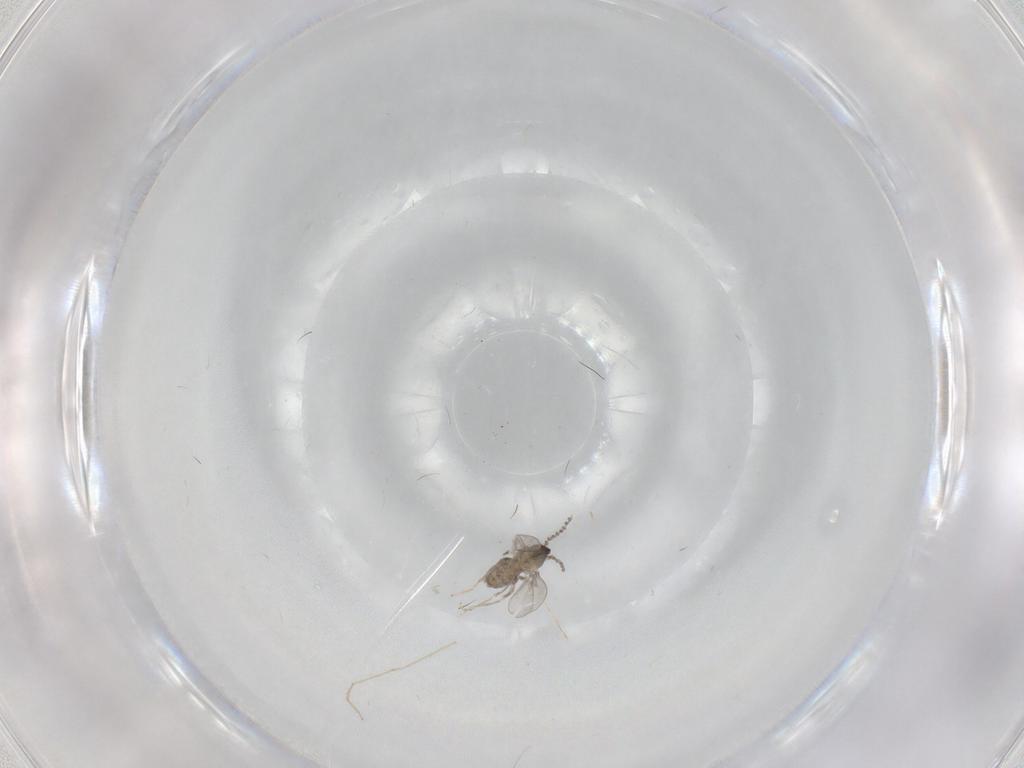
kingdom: Animalia
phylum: Arthropoda
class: Insecta
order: Diptera
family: Cecidomyiidae
